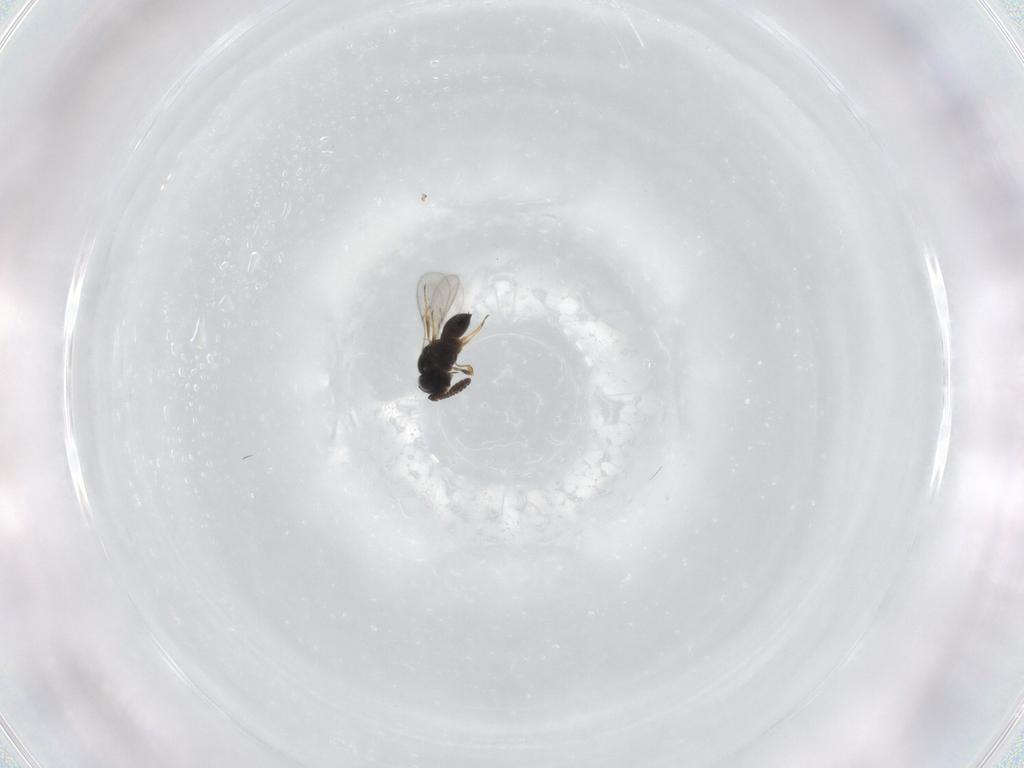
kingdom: Animalia
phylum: Arthropoda
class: Insecta
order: Hymenoptera
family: Scelionidae
